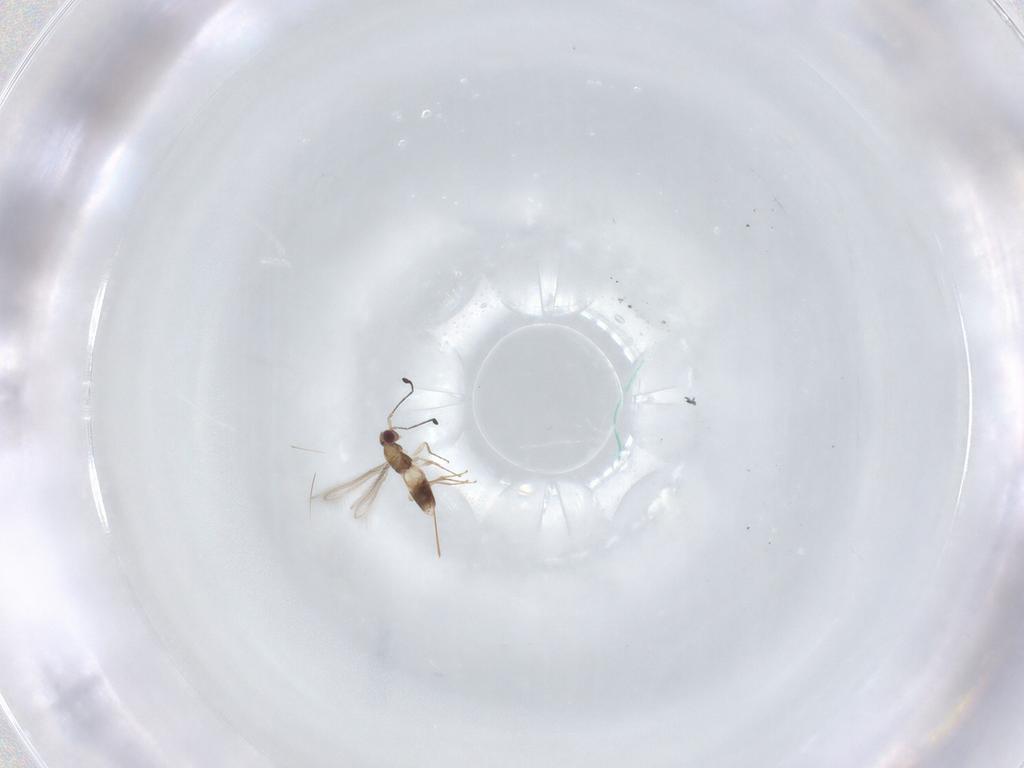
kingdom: Animalia
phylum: Arthropoda
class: Insecta
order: Hymenoptera
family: Mymaridae
